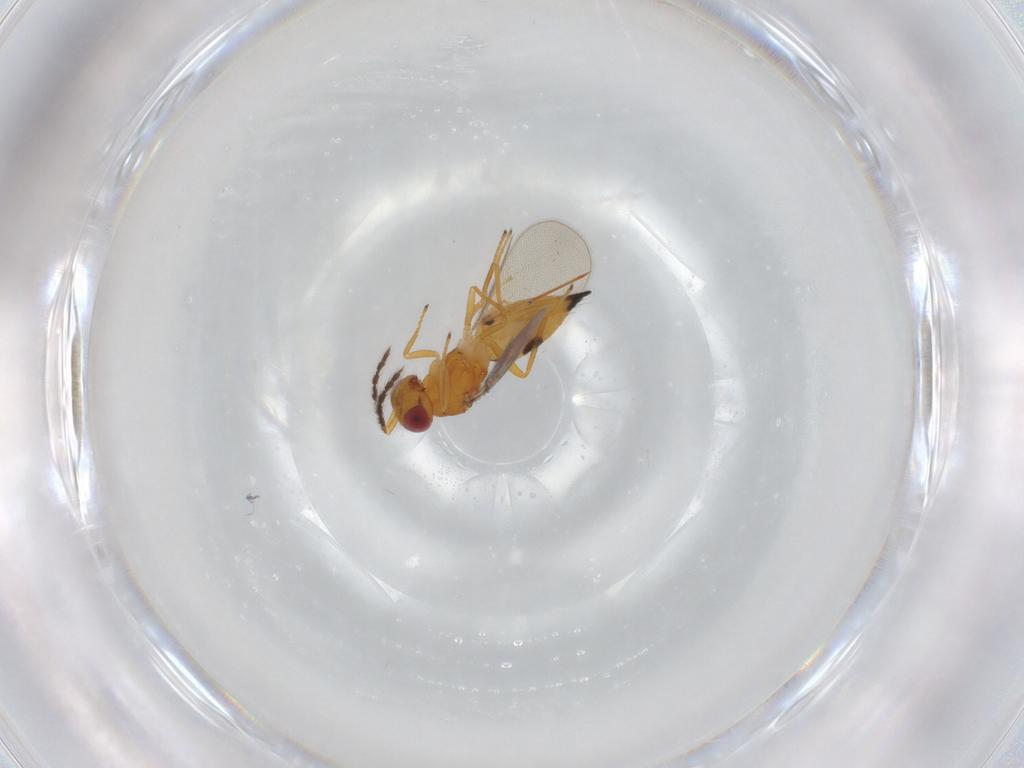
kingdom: Animalia
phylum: Arthropoda
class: Insecta
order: Hymenoptera
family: Eulophidae
